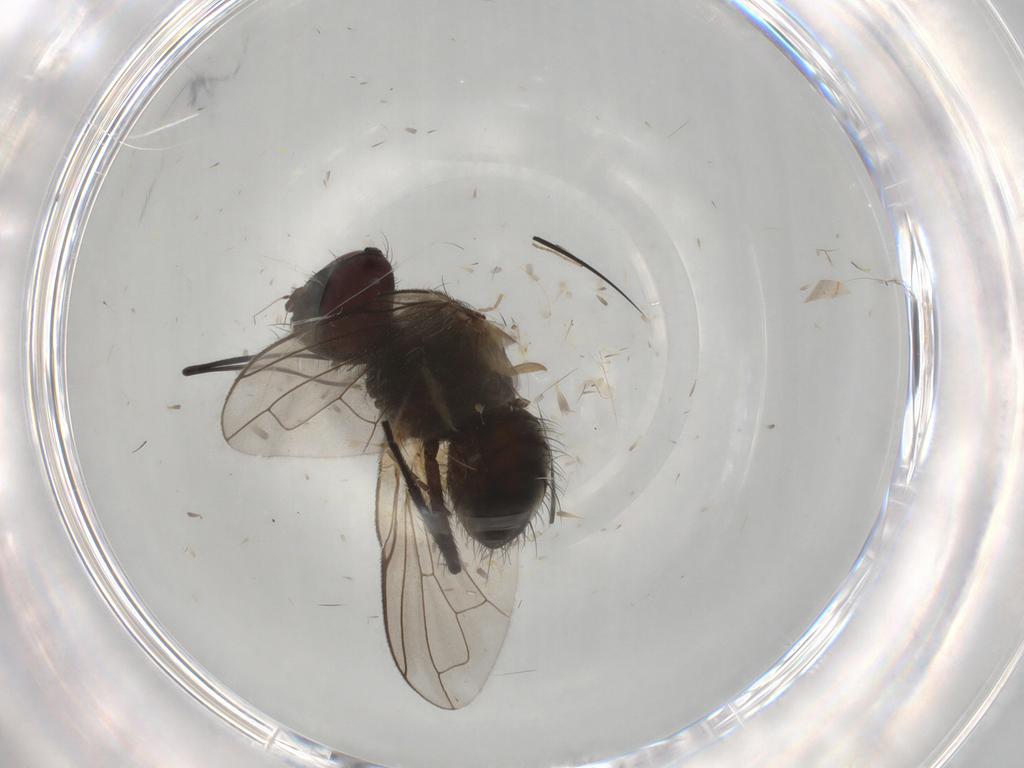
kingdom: Animalia
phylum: Arthropoda
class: Insecta
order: Diptera
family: Tachinidae
